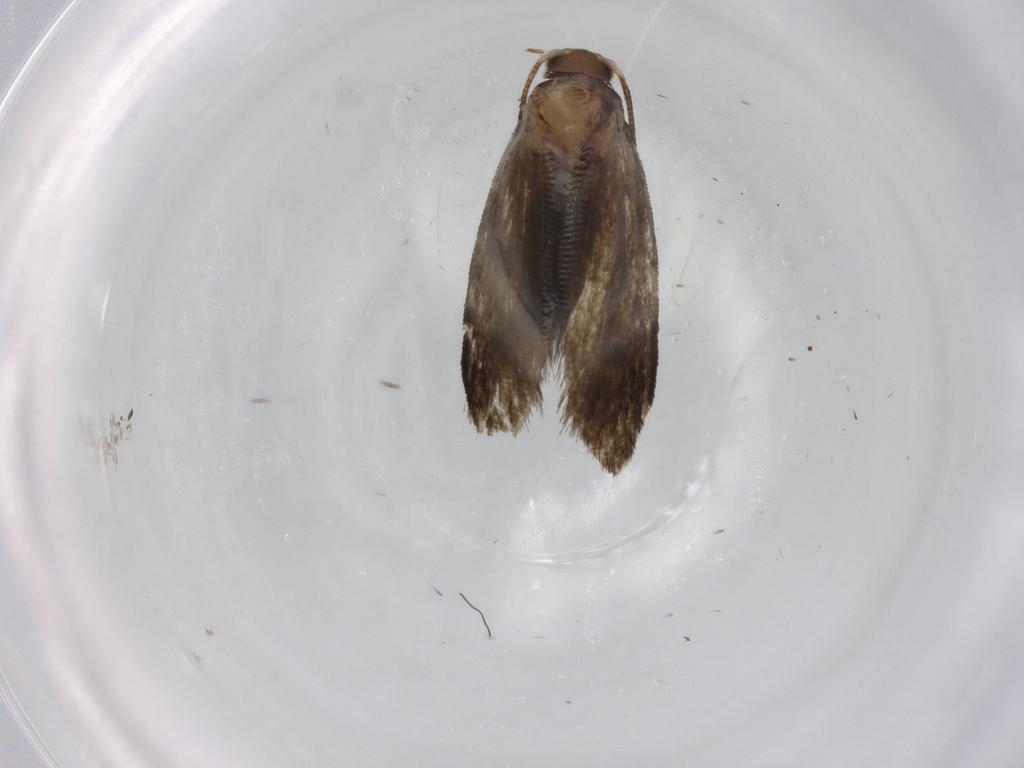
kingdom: Animalia
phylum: Arthropoda
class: Insecta
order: Lepidoptera
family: Crambidae
